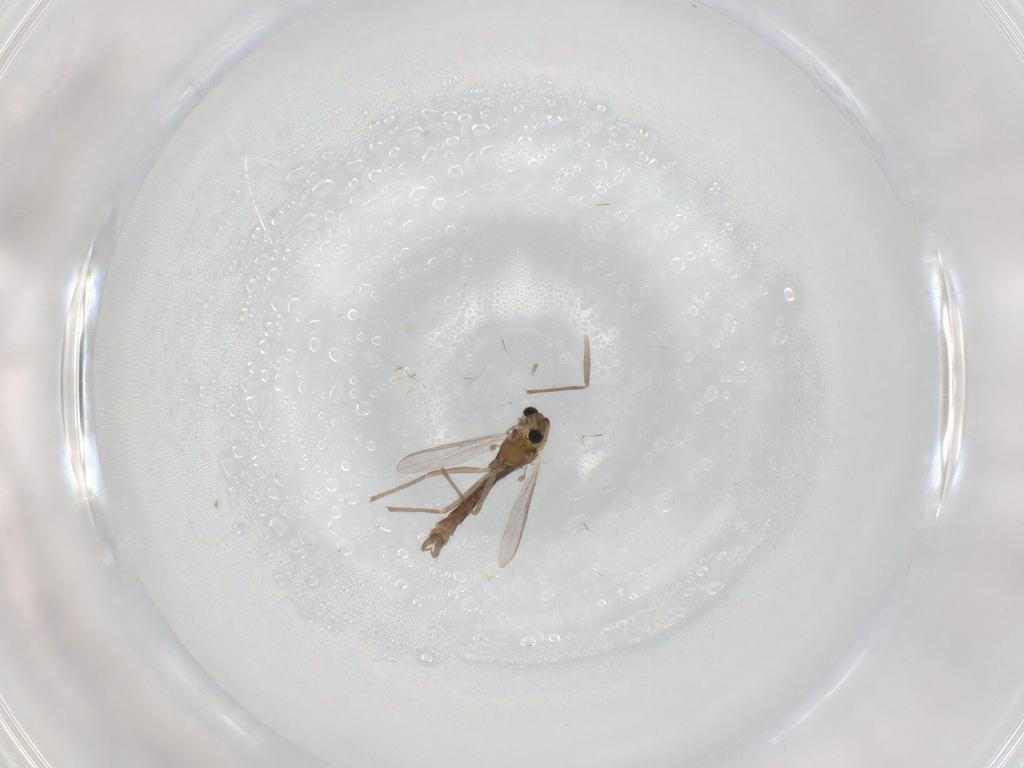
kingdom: Animalia
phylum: Arthropoda
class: Insecta
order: Diptera
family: Chironomidae
